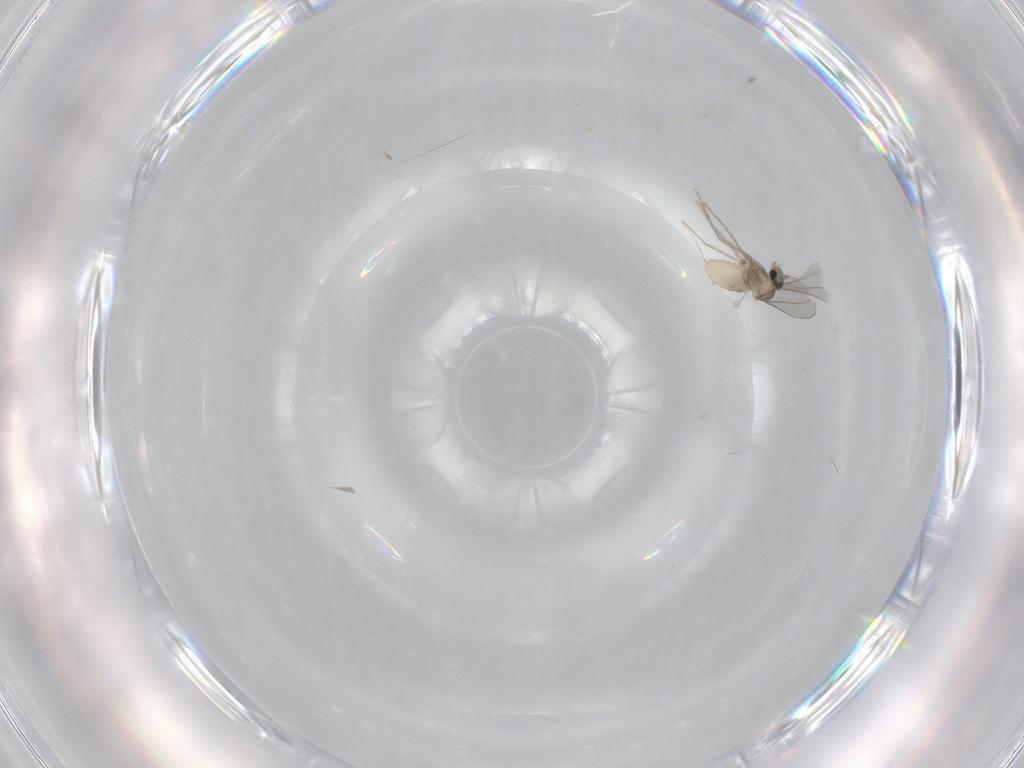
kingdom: Animalia
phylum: Arthropoda
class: Insecta
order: Diptera
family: Cecidomyiidae
